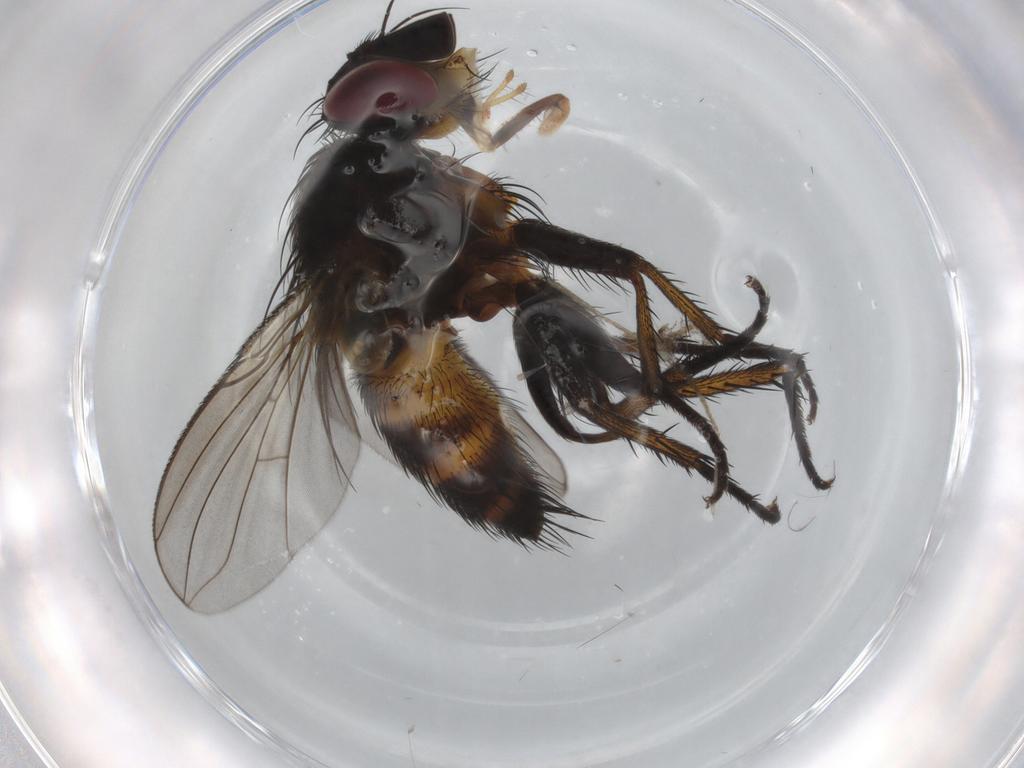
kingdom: Animalia
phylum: Arthropoda
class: Insecta
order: Diptera
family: Tachinidae
